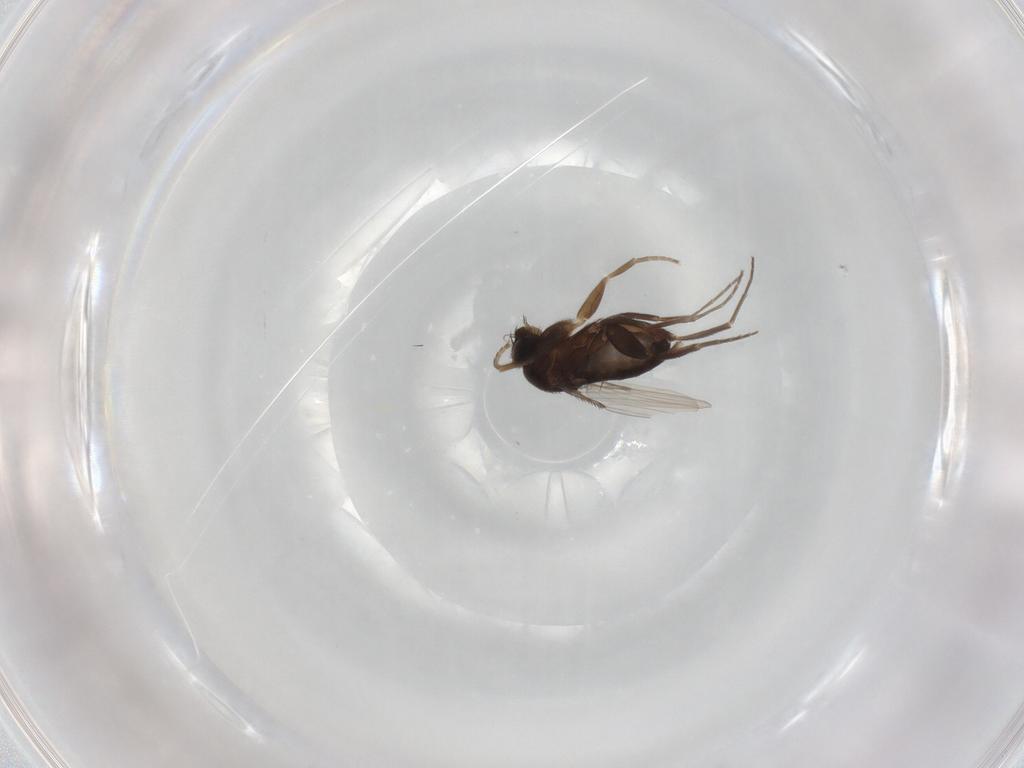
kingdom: Animalia
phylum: Arthropoda
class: Insecta
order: Diptera
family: Phoridae
